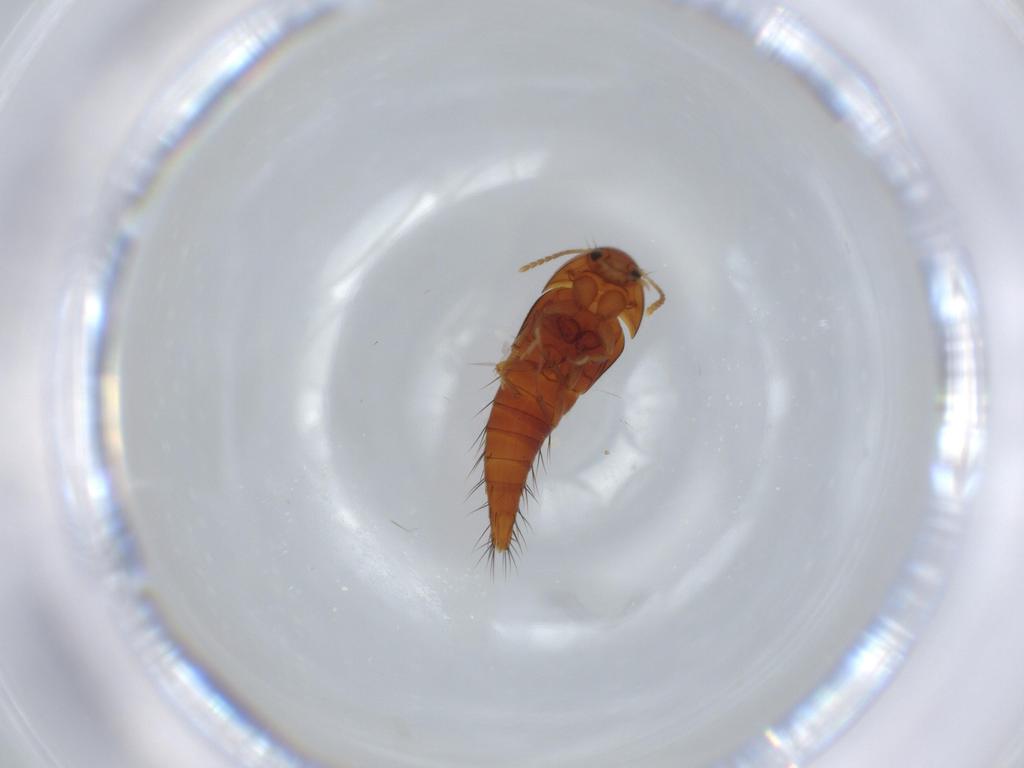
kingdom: Animalia
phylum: Arthropoda
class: Insecta
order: Coleoptera
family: Staphylinidae
